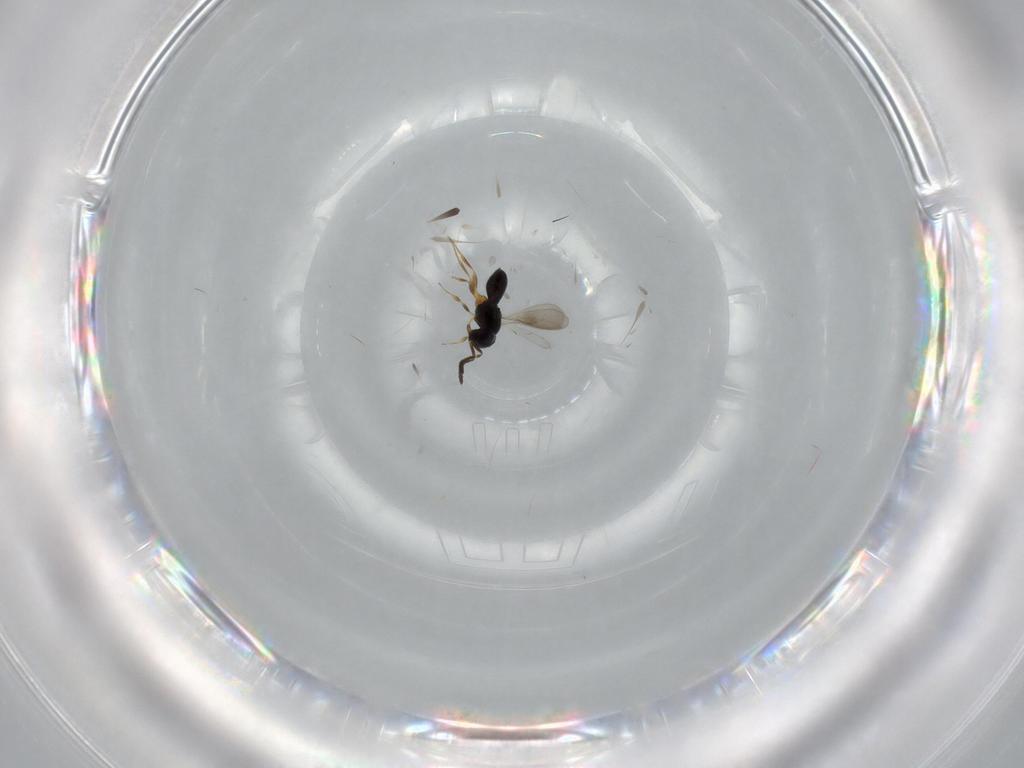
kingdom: Animalia
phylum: Arthropoda
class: Insecta
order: Hymenoptera
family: Scelionidae
